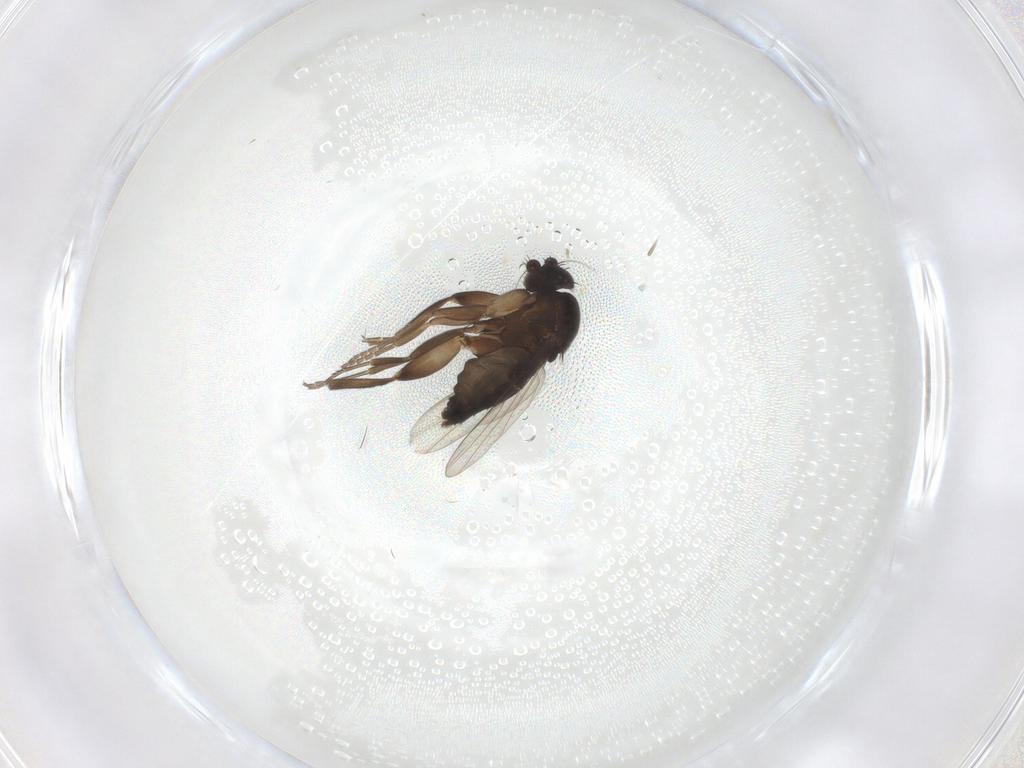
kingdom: Animalia
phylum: Arthropoda
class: Insecta
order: Diptera
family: Phoridae
